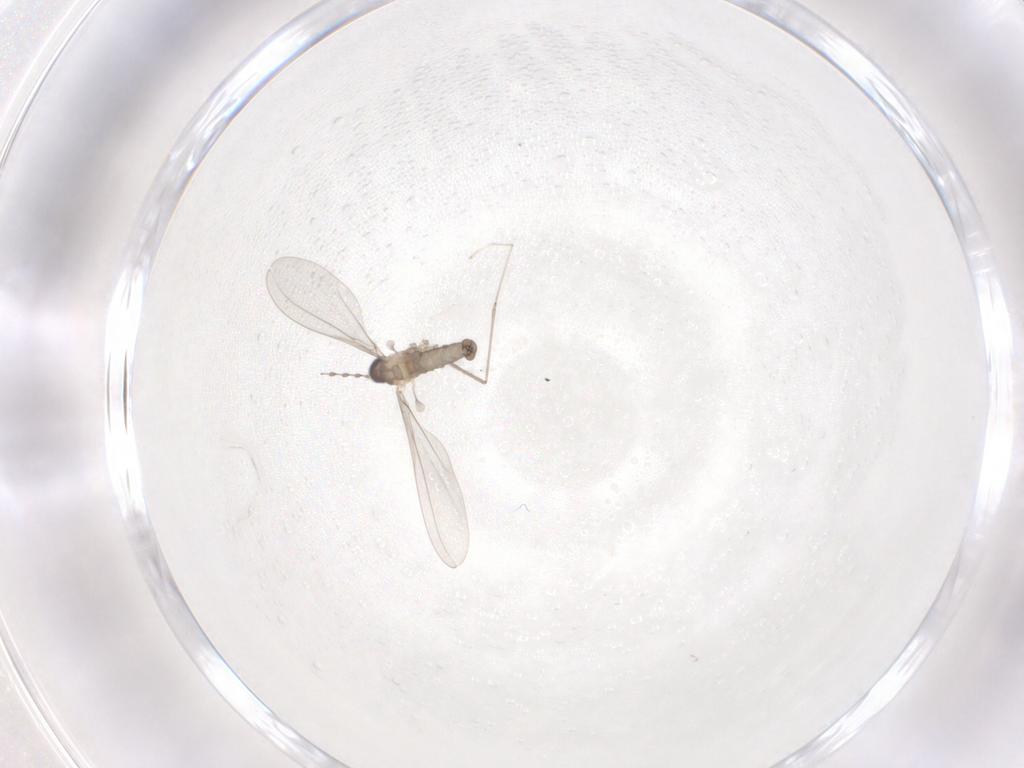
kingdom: Animalia
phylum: Arthropoda
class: Insecta
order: Diptera
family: Cecidomyiidae
